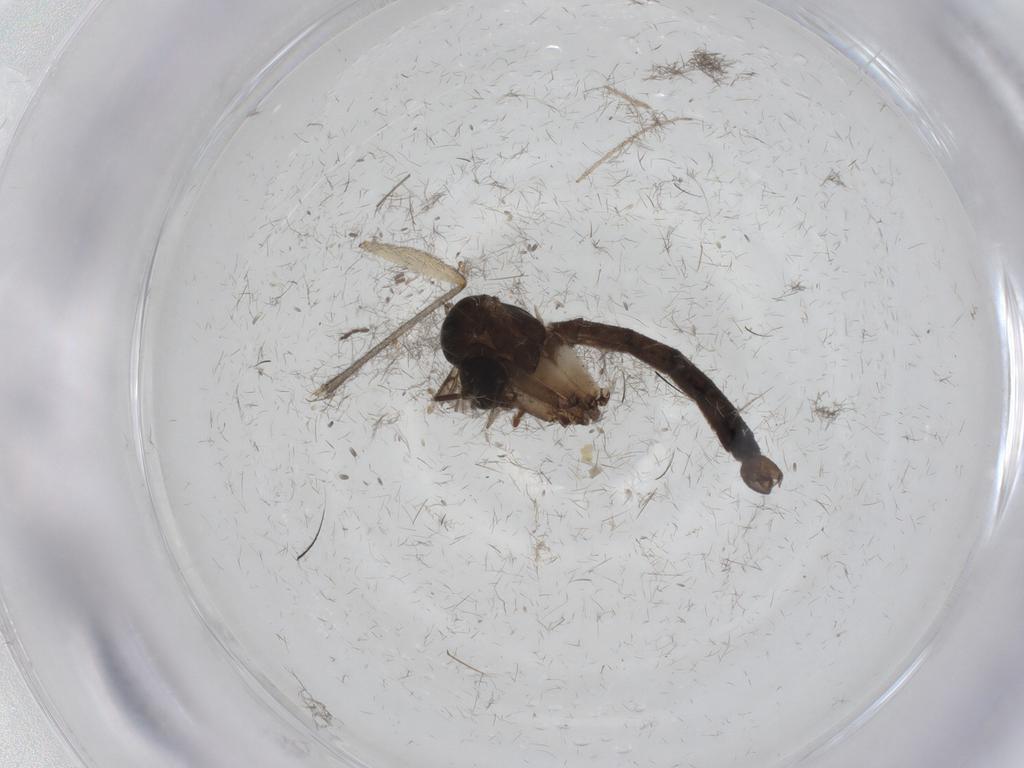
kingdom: Animalia
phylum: Arthropoda
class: Insecta
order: Diptera
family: Sciaridae
